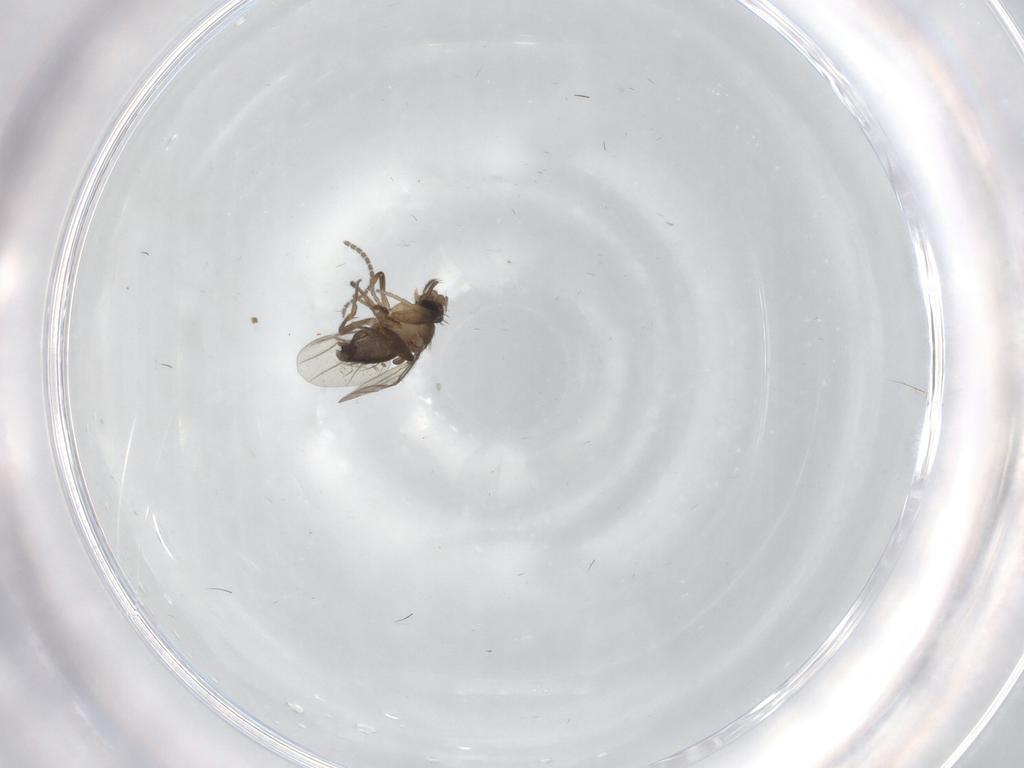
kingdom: Animalia
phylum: Arthropoda
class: Insecta
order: Diptera
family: Phoridae
